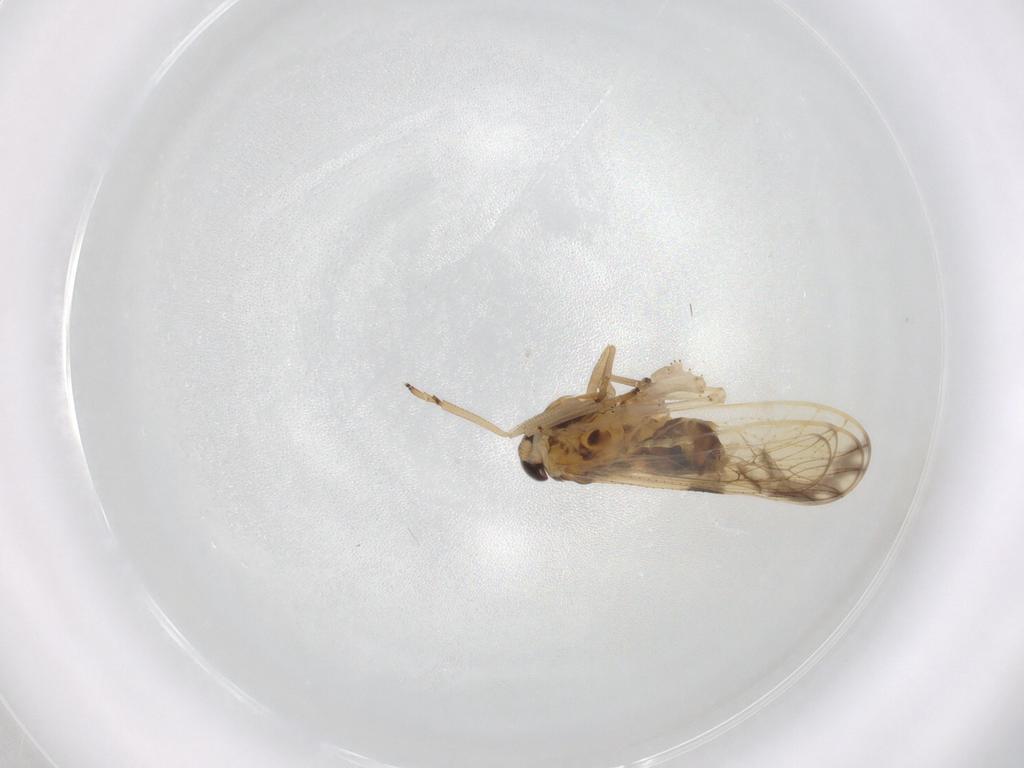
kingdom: Animalia
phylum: Arthropoda
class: Insecta
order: Hemiptera
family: Delphacidae
